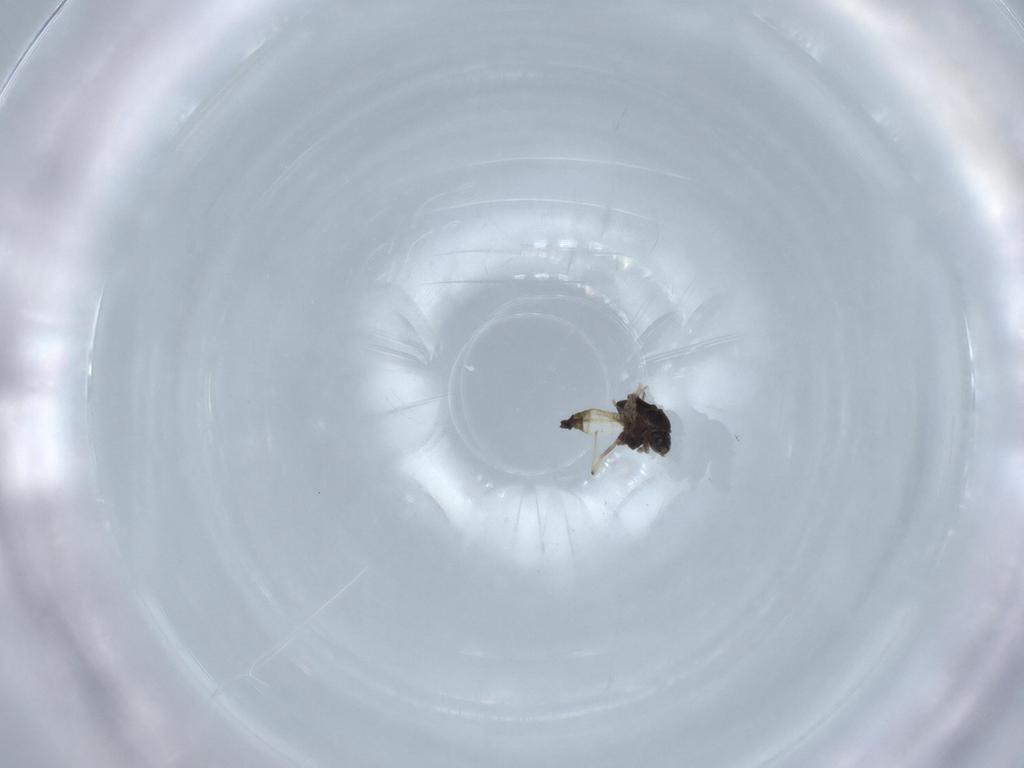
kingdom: Animalia
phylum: Arthropoda
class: Insecta
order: Diptera
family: Chironomidae
